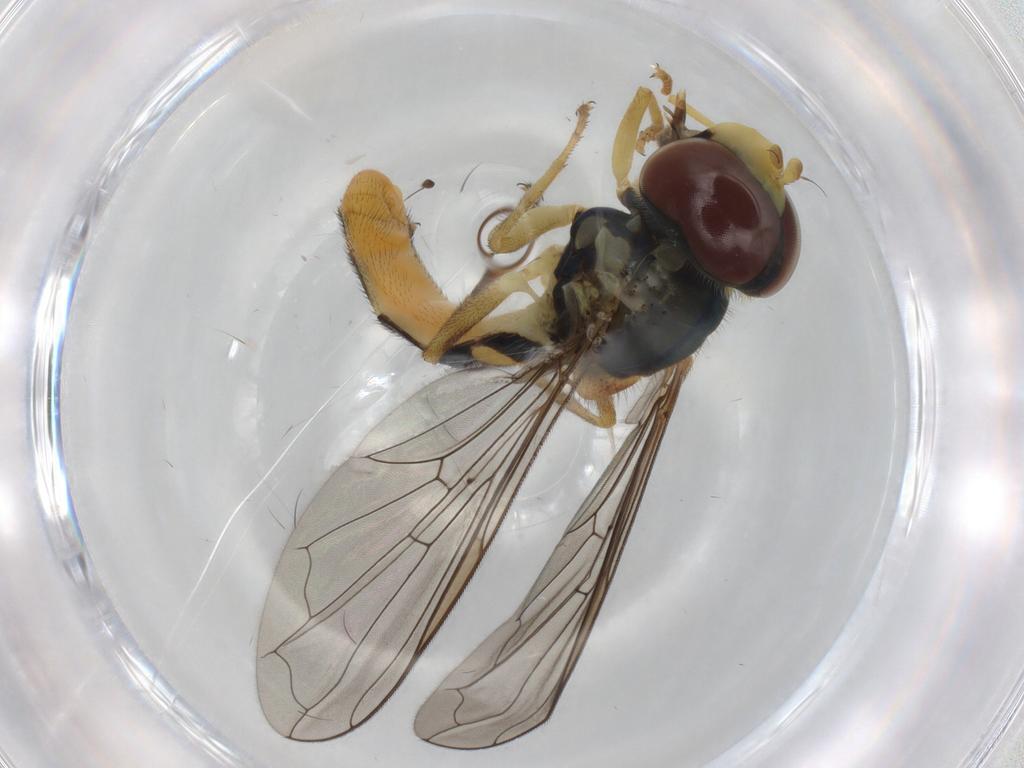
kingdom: Animalia
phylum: Arthropoda
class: Insecta
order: Diptera
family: Syrphidae
